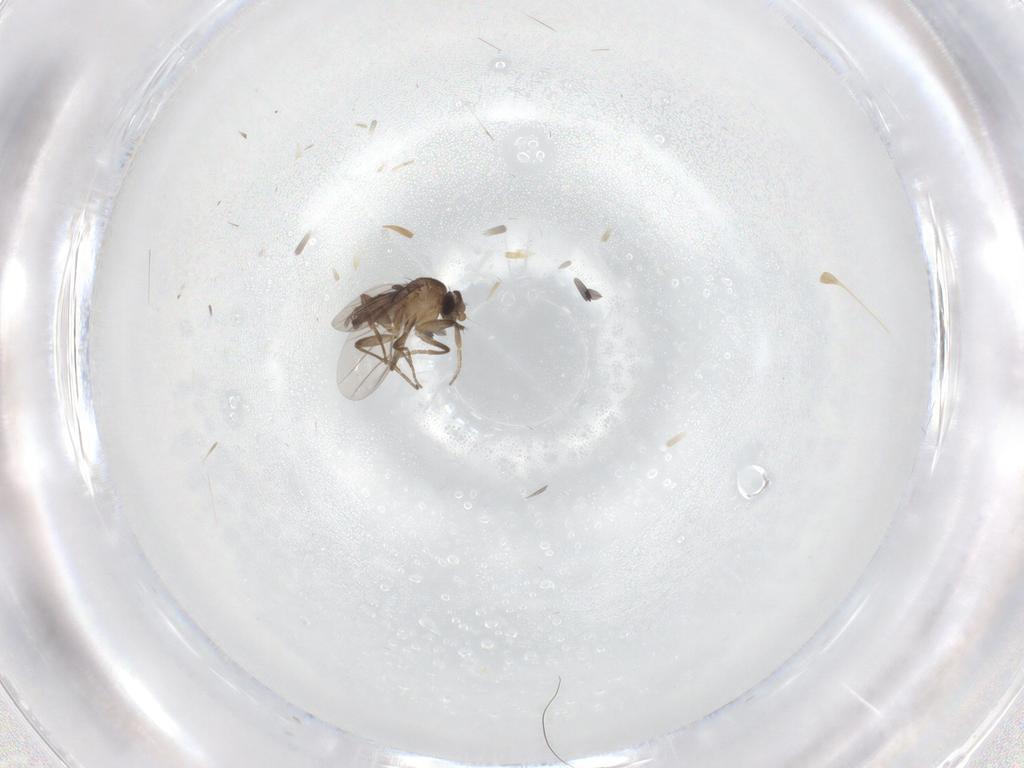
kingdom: Animalia
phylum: Arthropoda
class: Insecta
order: Diptera
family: Phoridae
